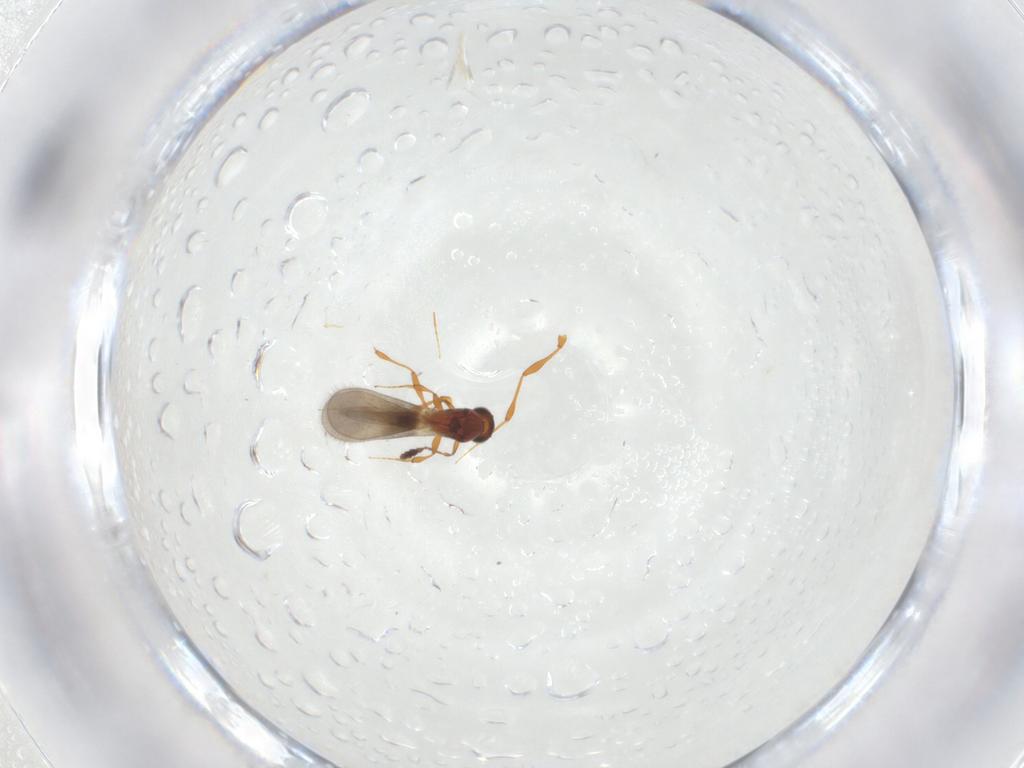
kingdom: Animalia
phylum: Arthropoda
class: Insecta
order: Hymenoptera
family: Platygastridae
